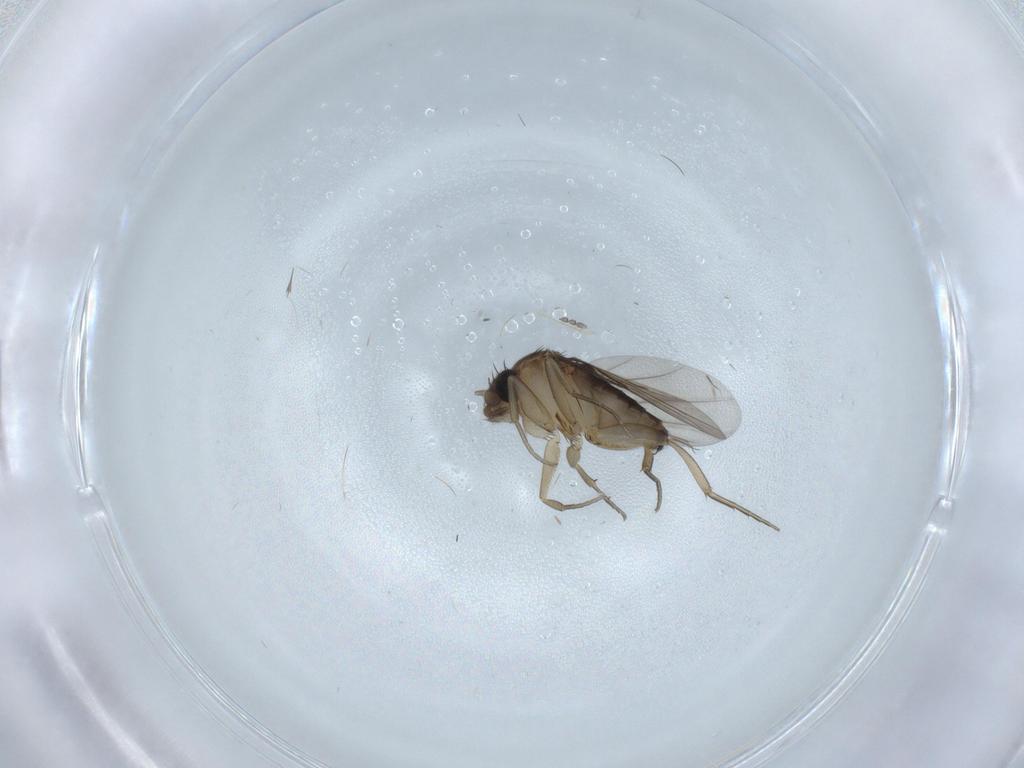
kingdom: Animalia
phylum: Arthropoda
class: Insecta
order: Diptera
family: Cecidomyiidae
